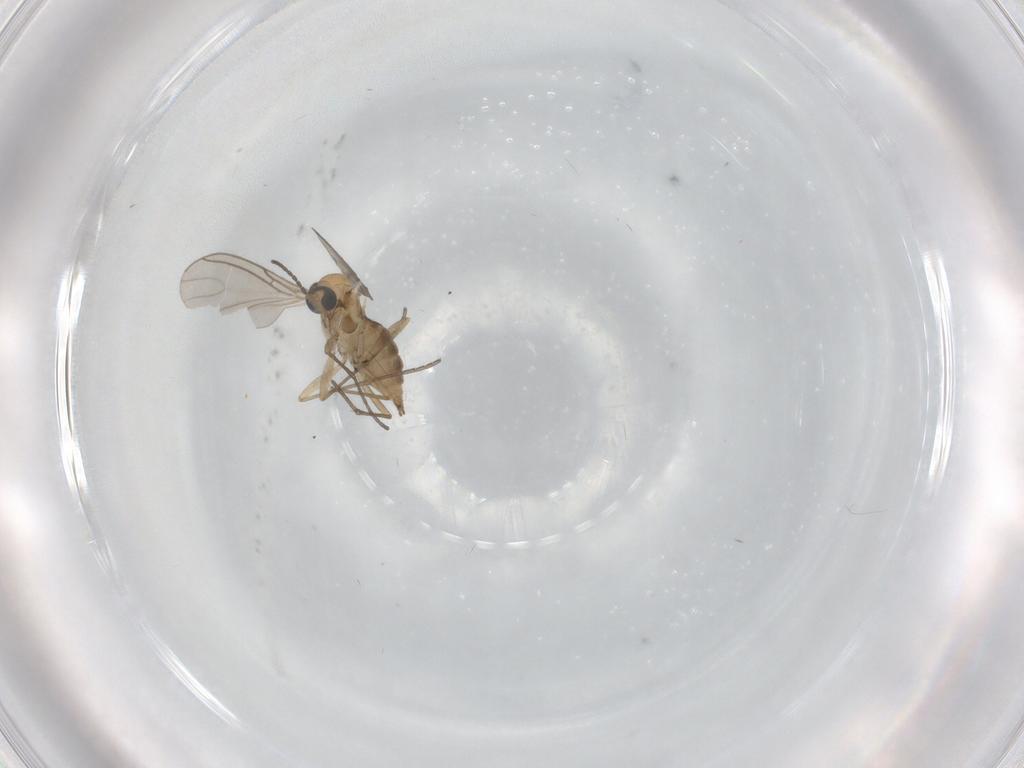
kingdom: Animalia
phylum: Arthropoda
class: Insecta
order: Diptera
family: Sciaridae
